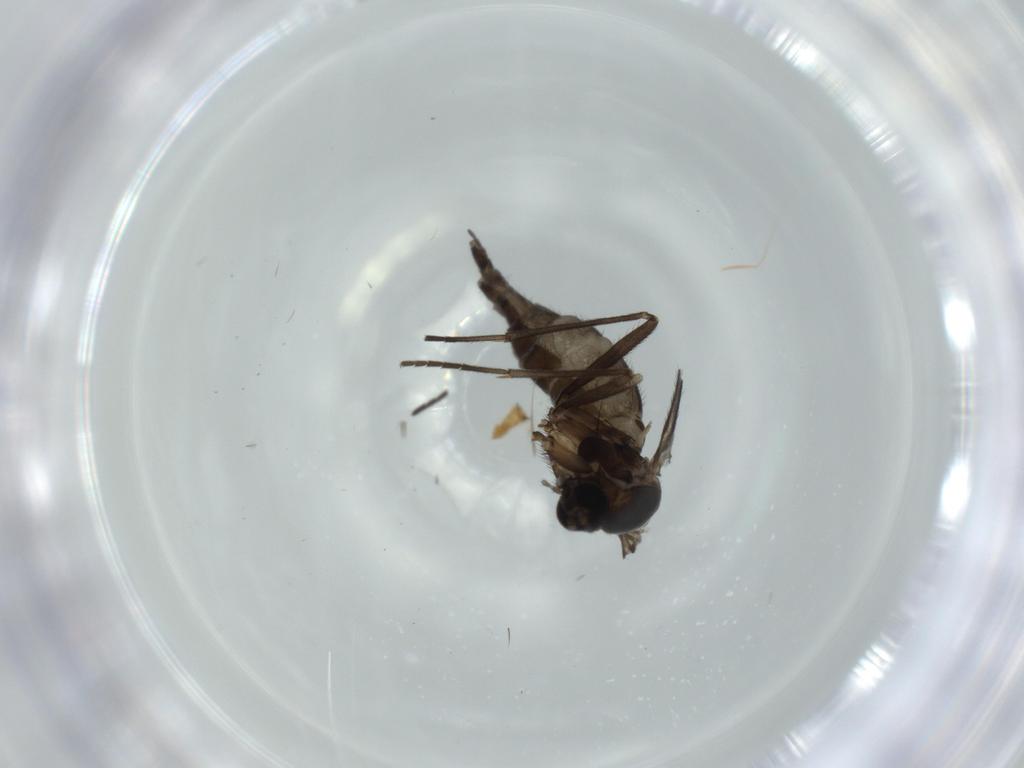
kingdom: Animalia
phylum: Arthropoda
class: Insecta
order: Diptera
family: Sciaridae
